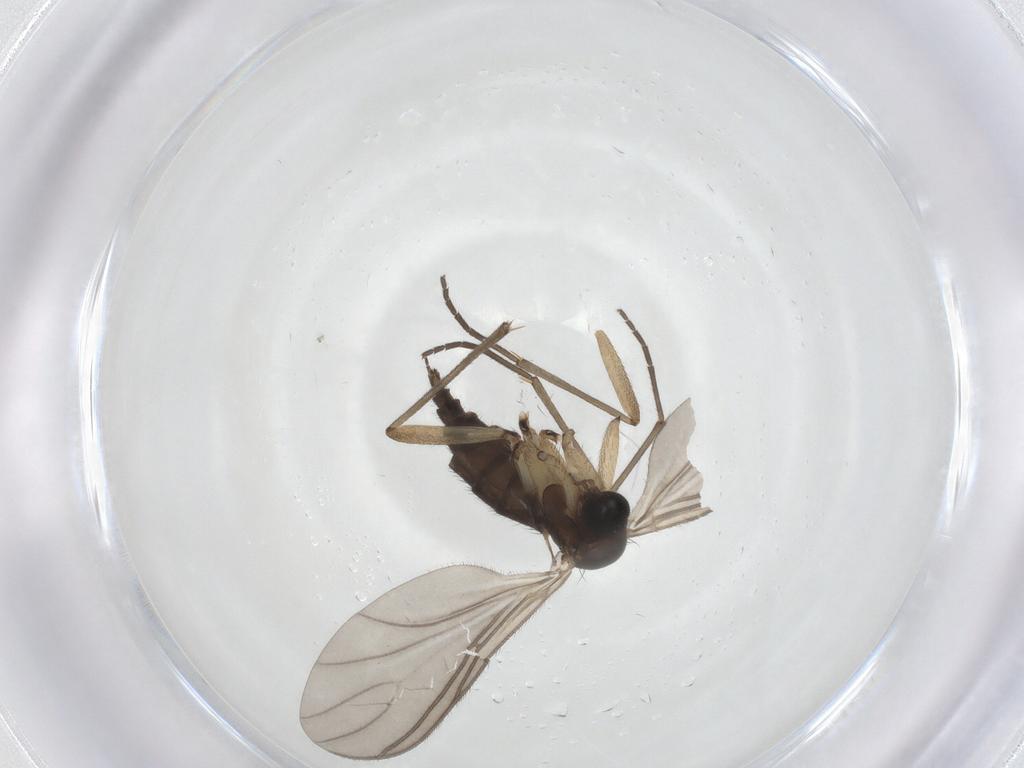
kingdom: Animalia
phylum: Arthropoda
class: Insecta
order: Diptera
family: Sciaridae
